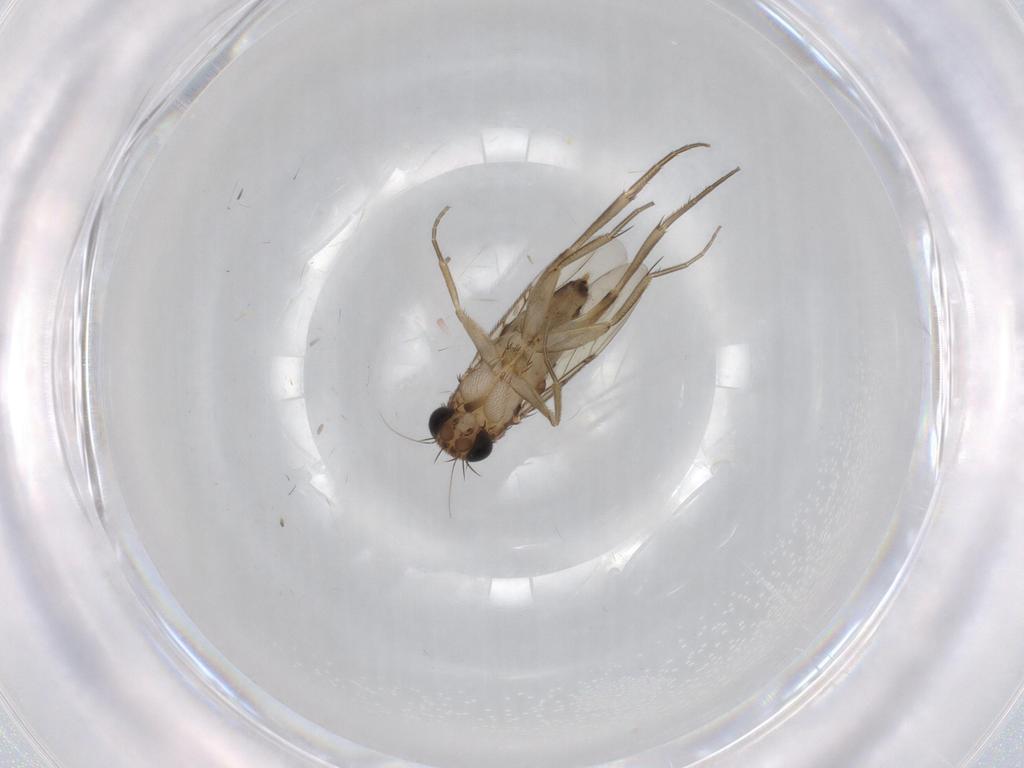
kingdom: Animalia
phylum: Arthropoda
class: Insecta
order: Diptera
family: Phoridae
